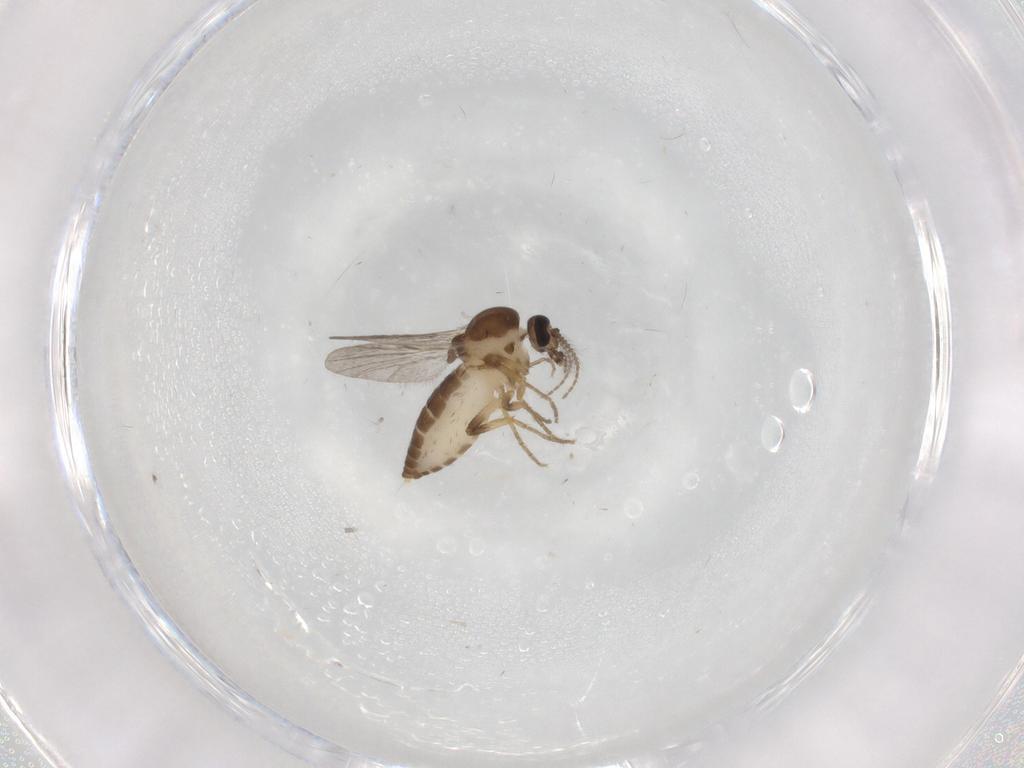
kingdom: Animalia
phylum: Arthropoda
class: Insecta
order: Diptera
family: Ceratopogonidae
